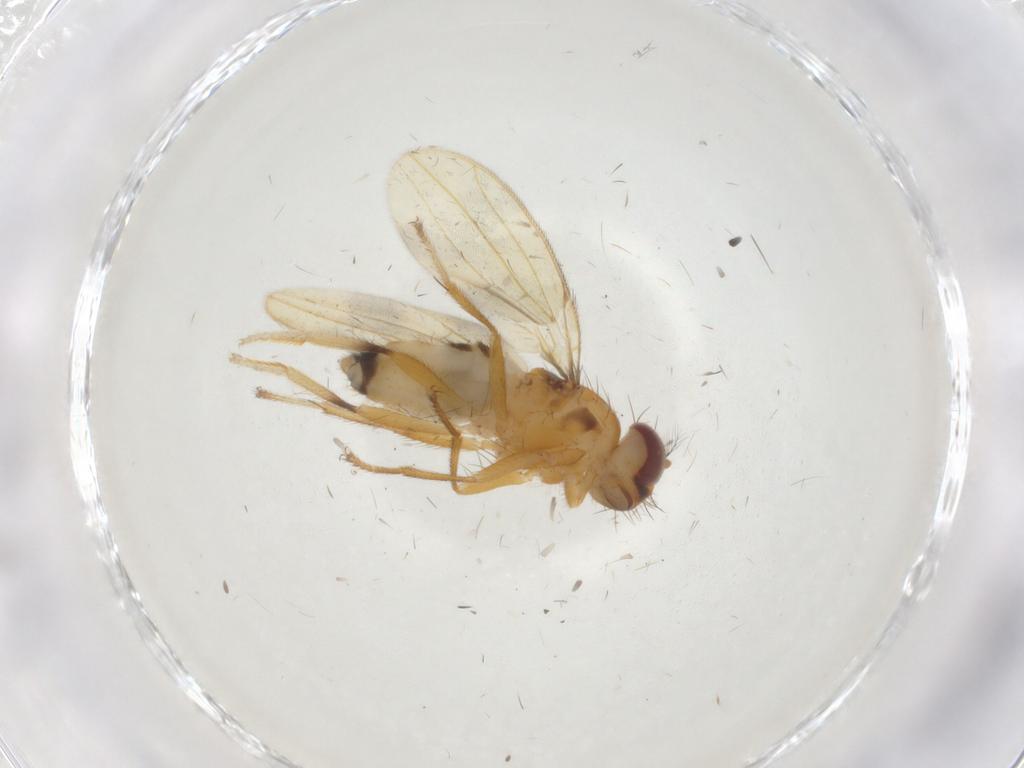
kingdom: Animalia
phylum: Arthropoda
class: Insecta
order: Diptera
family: Periscelididae
